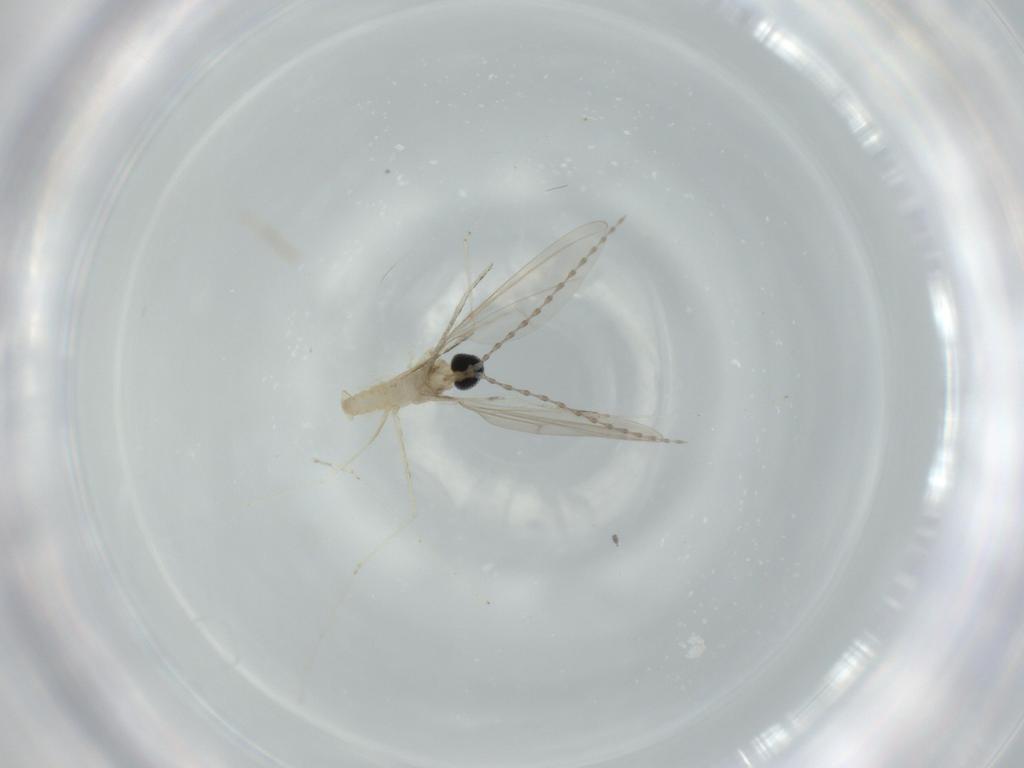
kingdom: Animalia
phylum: Arthropoda
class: Insecta
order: Diptera
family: Cecidomyiidae
